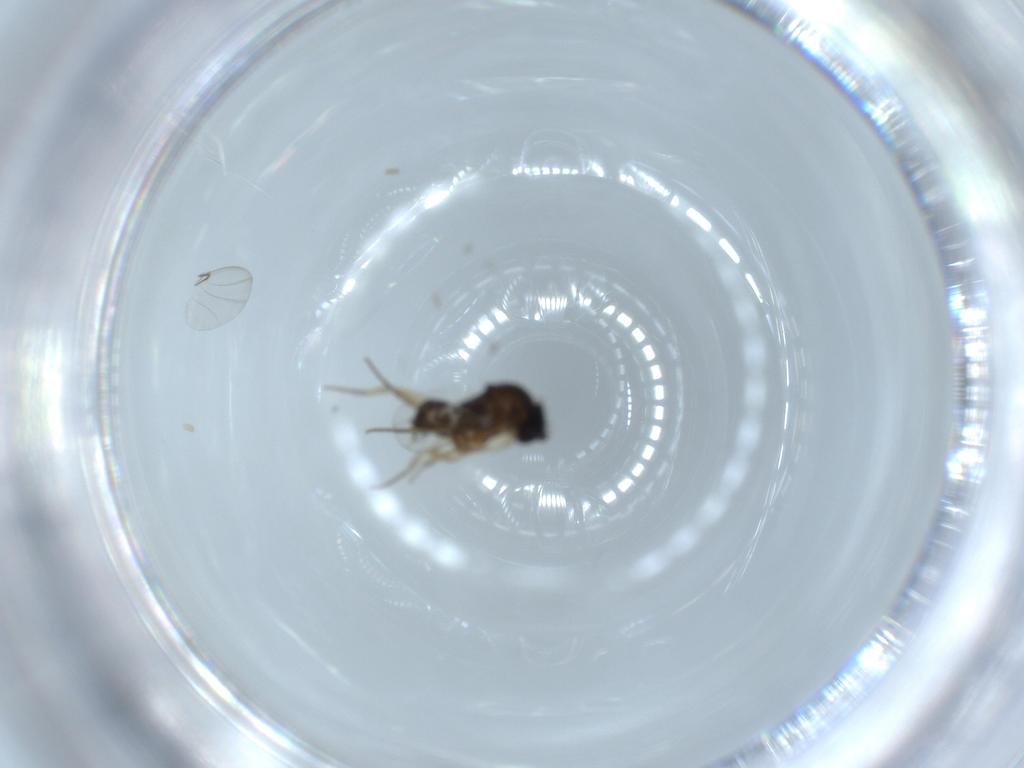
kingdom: Animalia
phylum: Arthropoda
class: Insecta
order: Diptera
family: Phoridae
